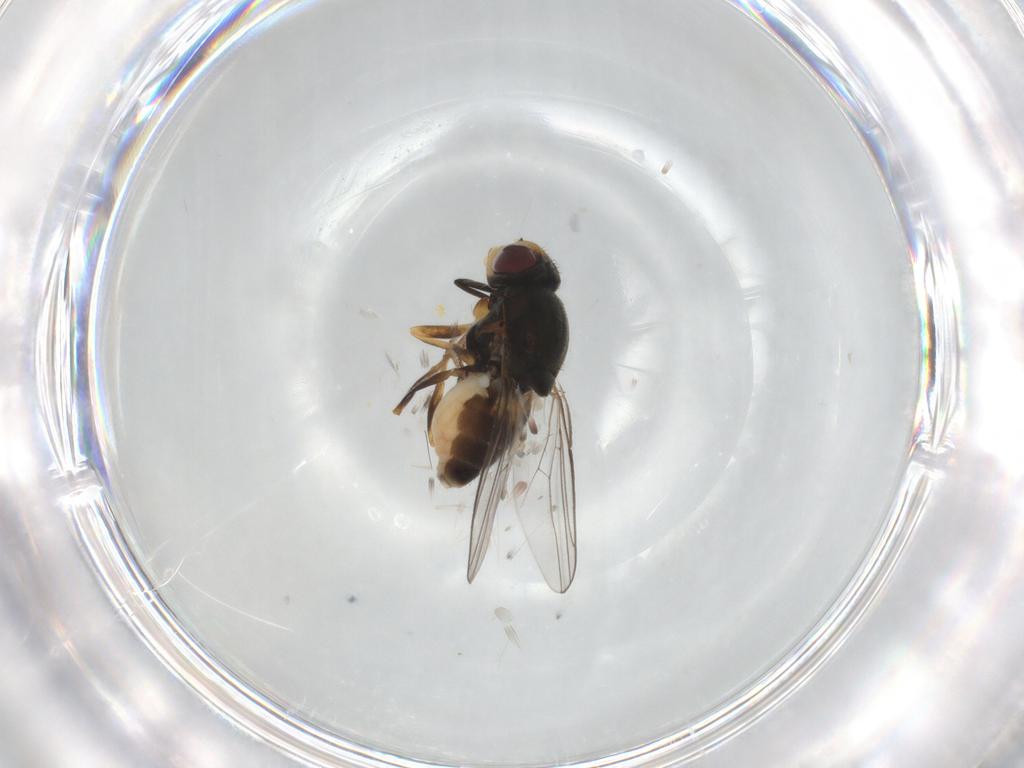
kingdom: Animalia
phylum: Arthropoda
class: Insecta
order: Diptera
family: Chloropidae
